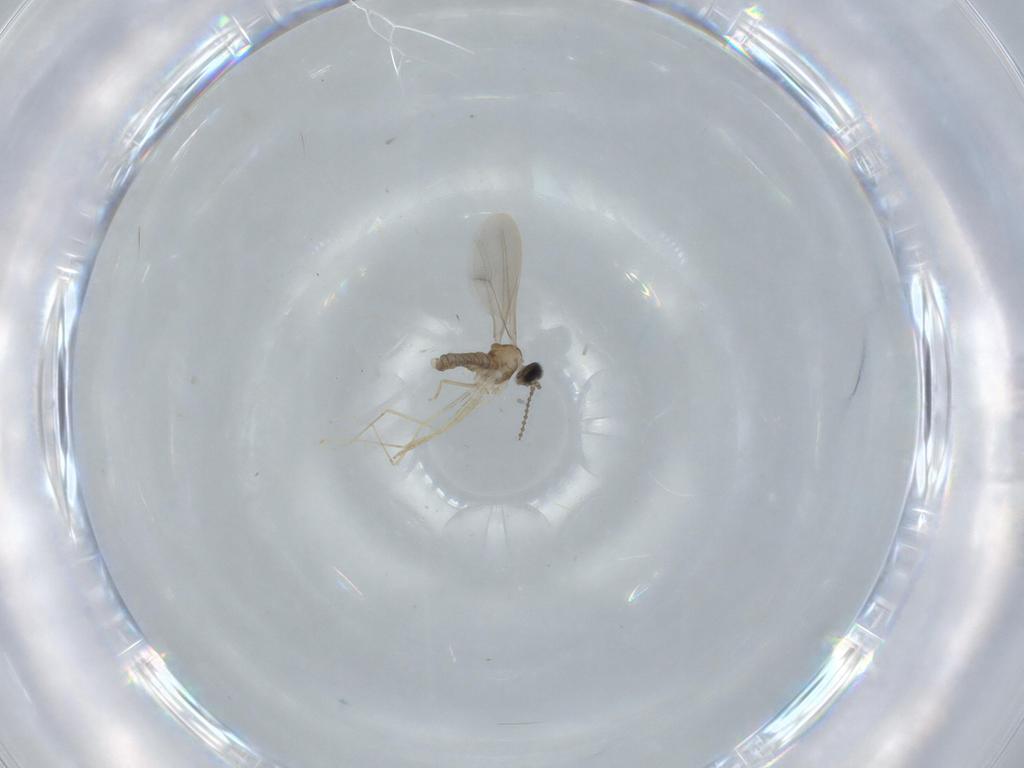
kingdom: Animalia
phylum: Arthropoda
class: Insecta
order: Diptera
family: Cecidomyiidae
